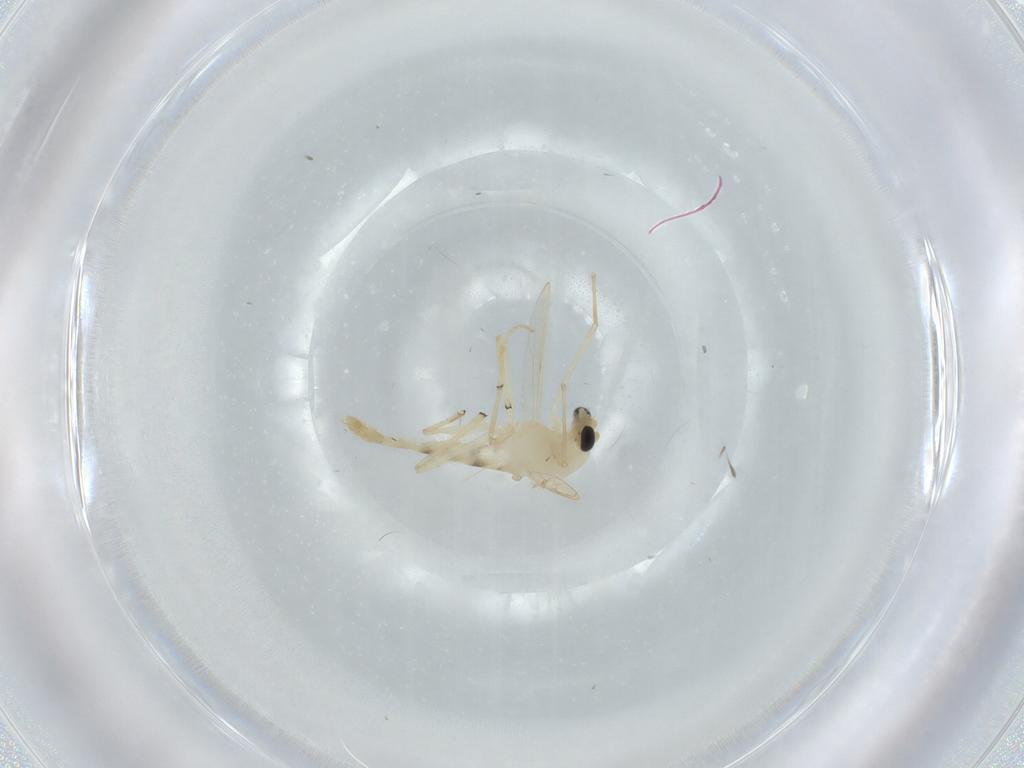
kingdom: Animalia
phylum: Arthropoda
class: Insecta
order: Diptera
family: Chironomidae
